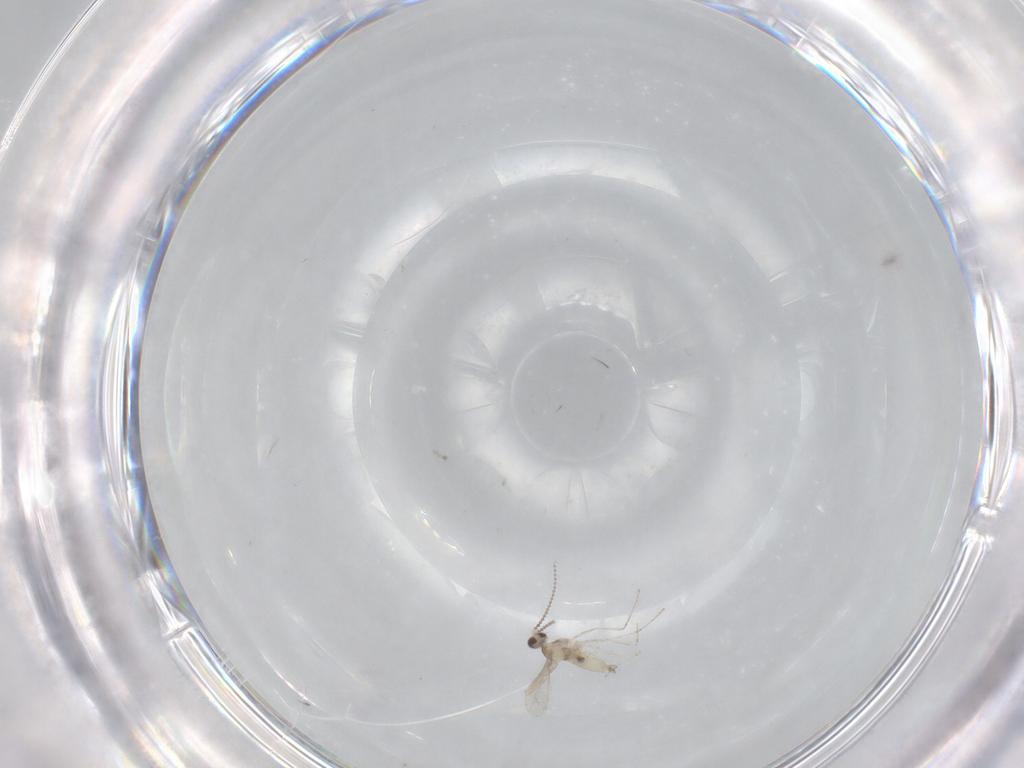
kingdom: Animalia
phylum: Arthropoda
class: Insecta
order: Diptera
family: Cecidomyiidae
